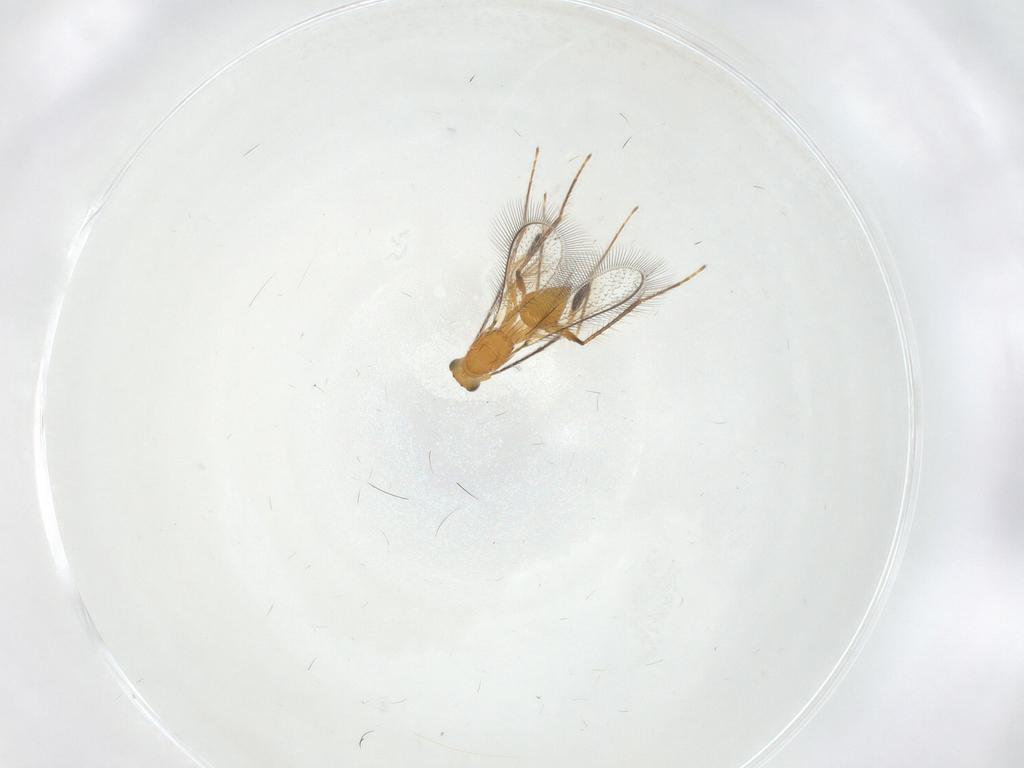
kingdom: Animalia
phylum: Arthropoda
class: Insecta
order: Hymenoptera
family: Mymaridae
